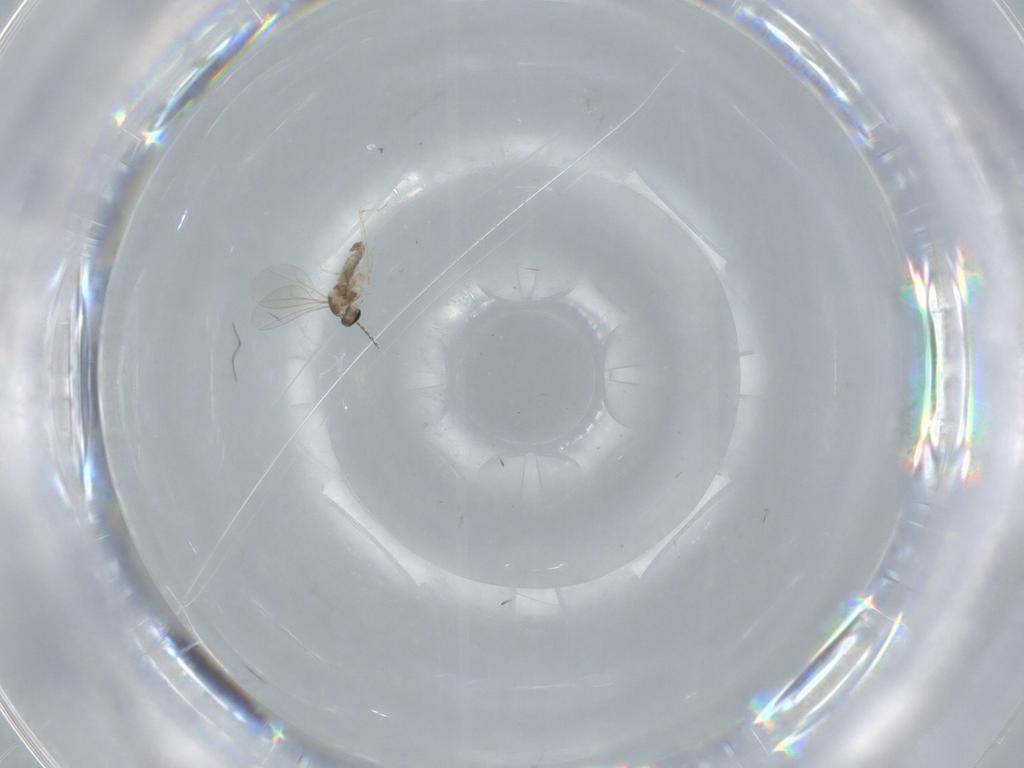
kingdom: Animalia
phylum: Arthropoda
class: Insecta
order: Diptera
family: Cecidomyiidae
